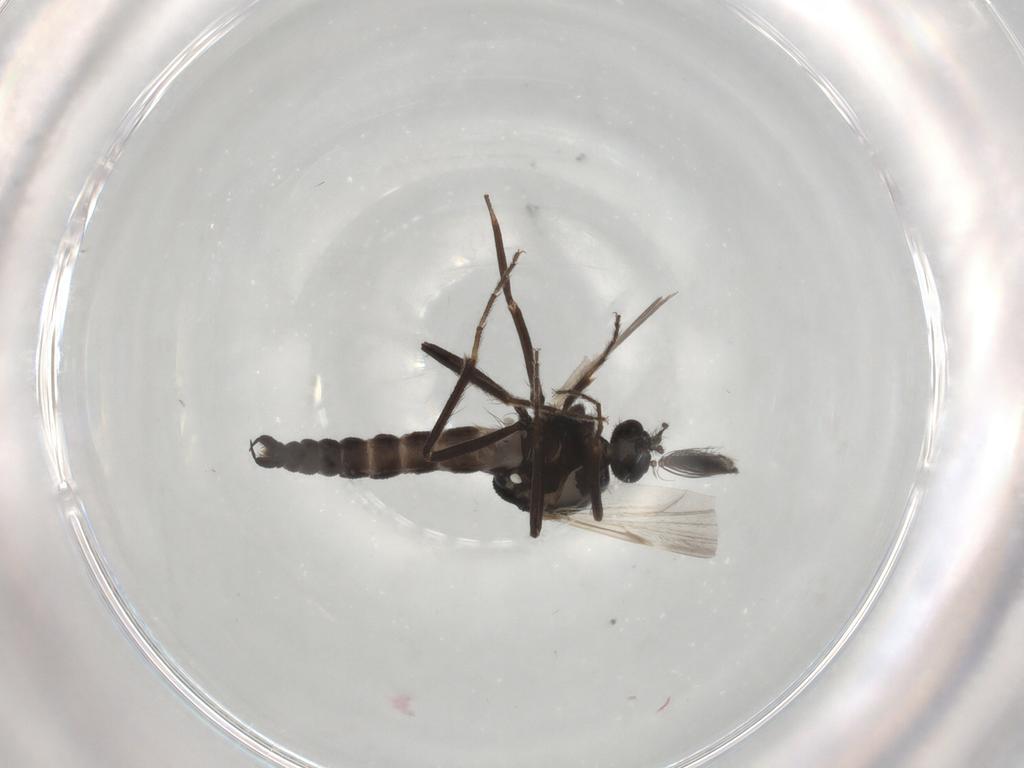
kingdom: Animalia
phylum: Arthropoda
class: Insecta
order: Diptera
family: Ceratopogonidae
